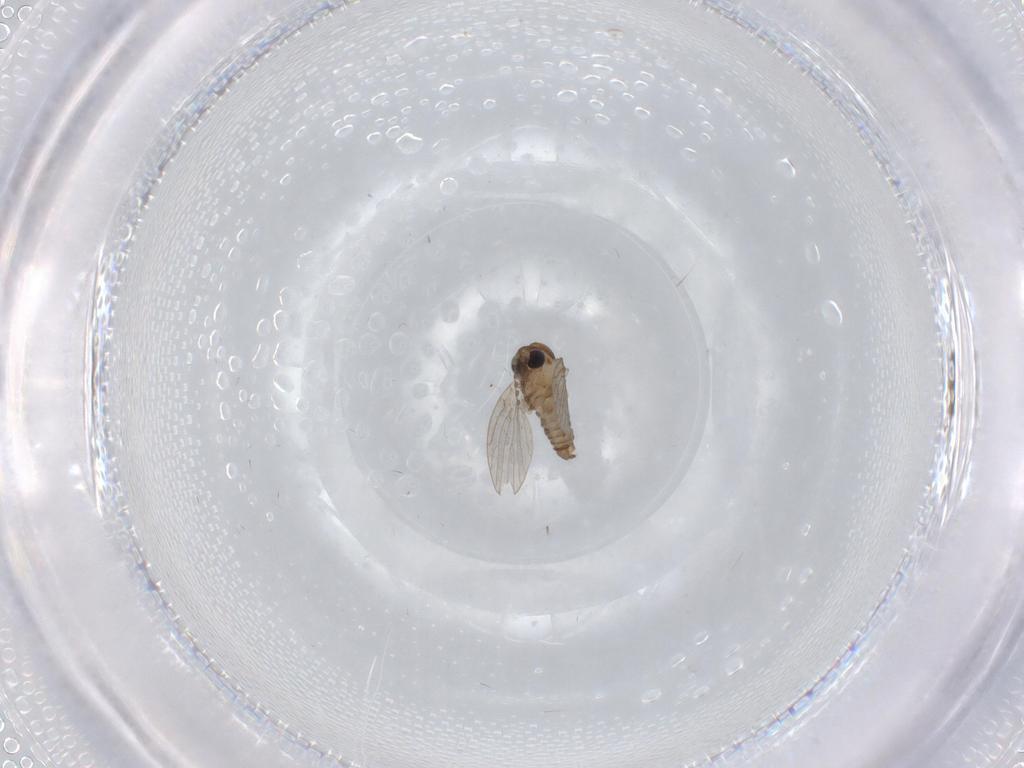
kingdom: Animalia
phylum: Arthropoda
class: Insecta
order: Diptera
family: Psychodidae
